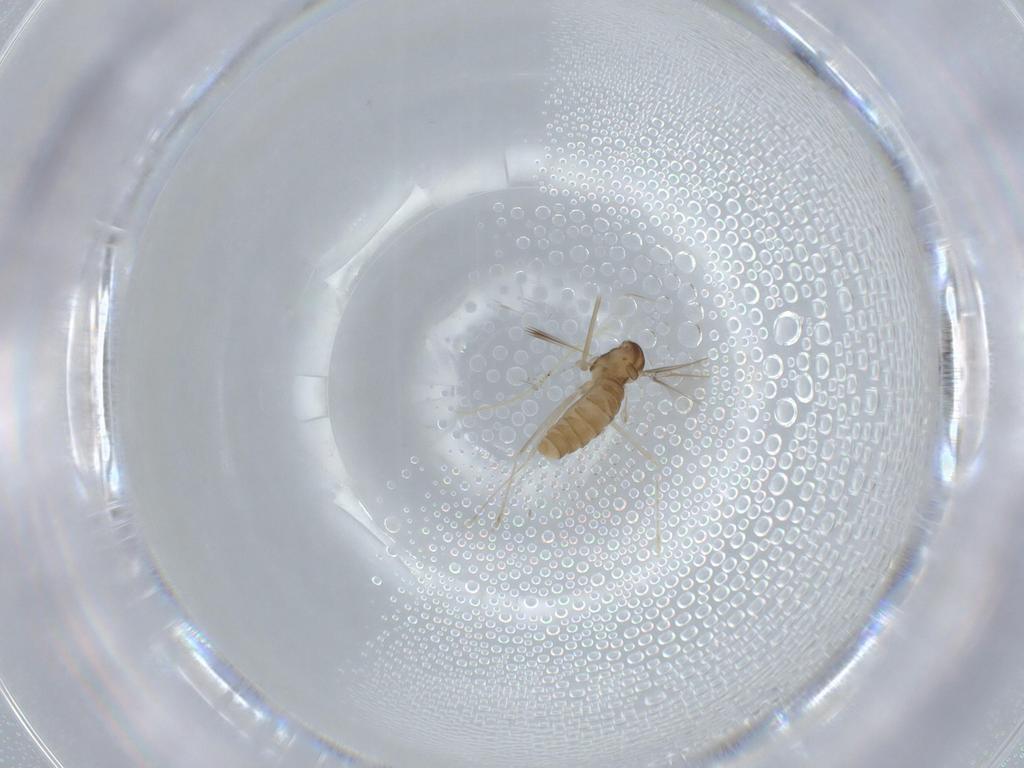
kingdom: Animalia
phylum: Arthropoda
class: Insecta
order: Diptera
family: Cecidomyiidae
